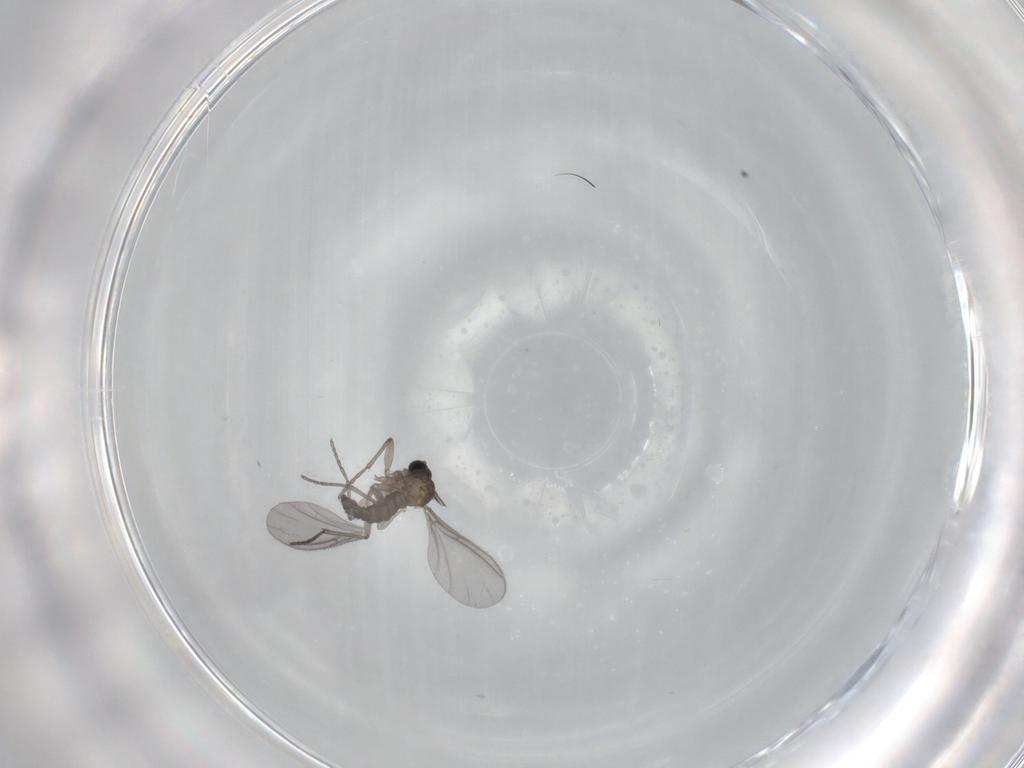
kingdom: Animalia
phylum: Arthropoda
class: Insecta
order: Diptera
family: Sciaridae
